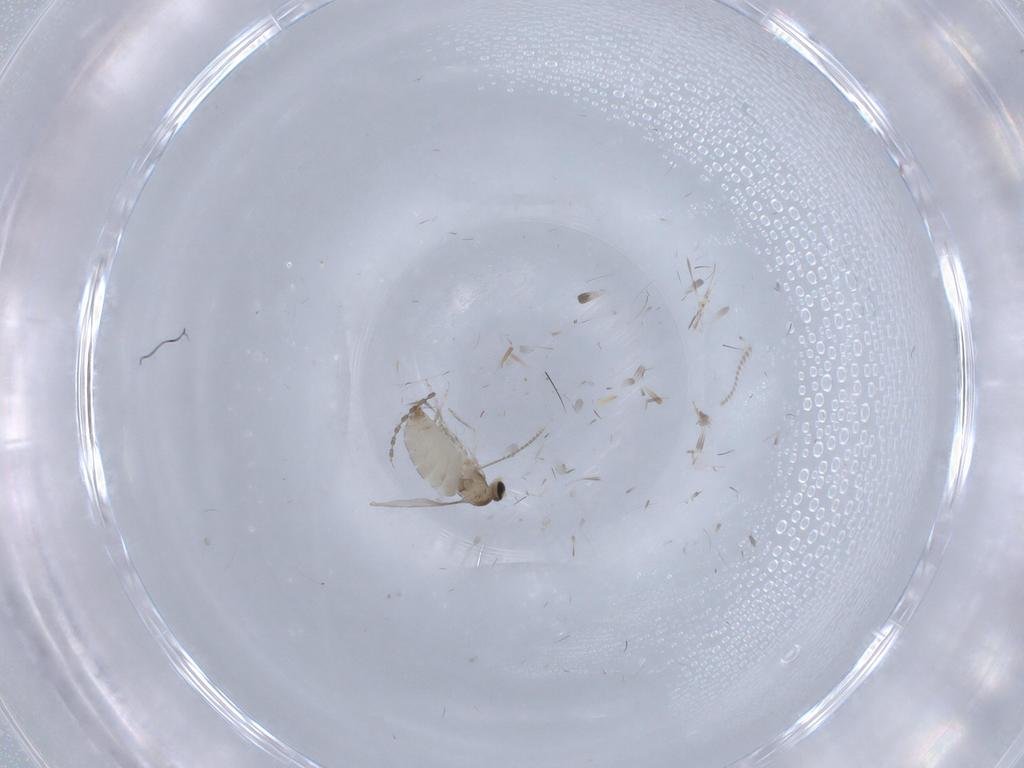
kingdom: Animalia
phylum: Arthropoda
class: Insecta
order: Diptera
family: Cecidomyiidae
